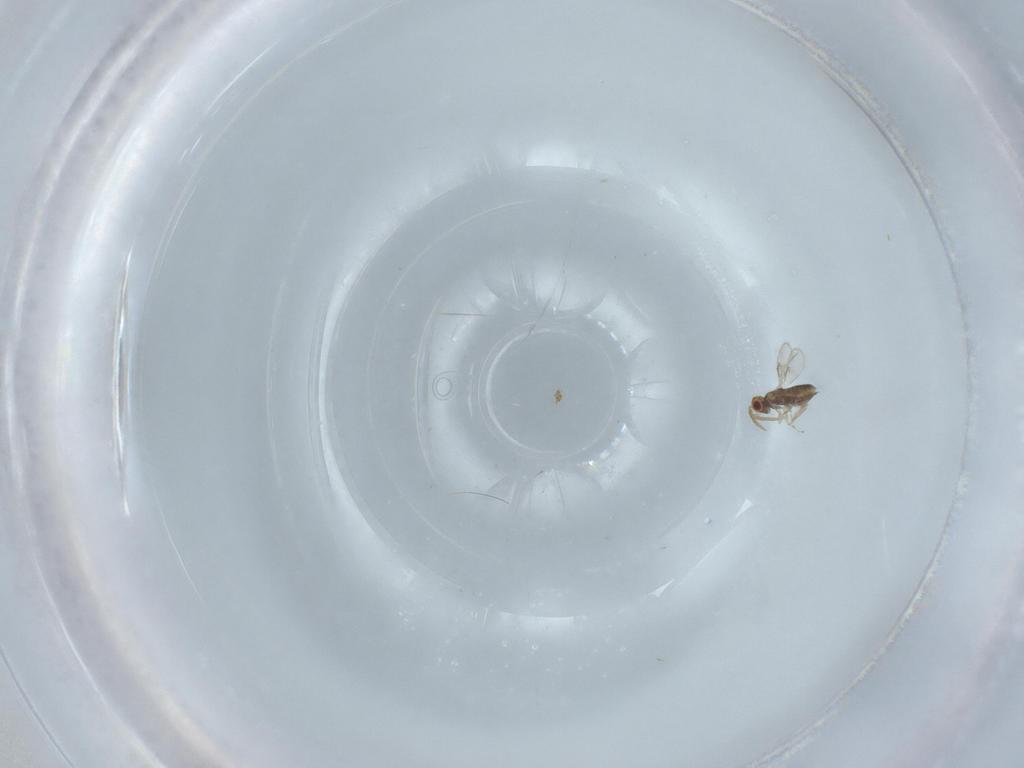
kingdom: Animalia
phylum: Arthropoda
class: Insecta
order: Hymenoptera
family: Aphelinidae
